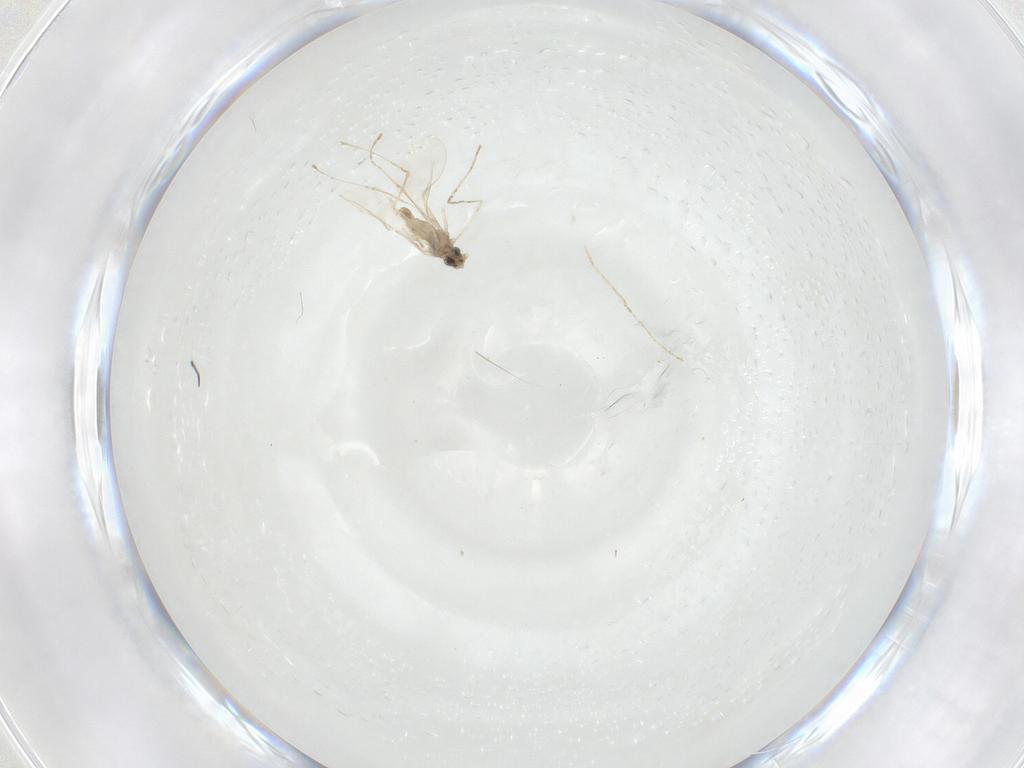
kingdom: Animalia
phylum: Arthropoda
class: Insecta
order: Diptera
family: Cecidomyiidae
